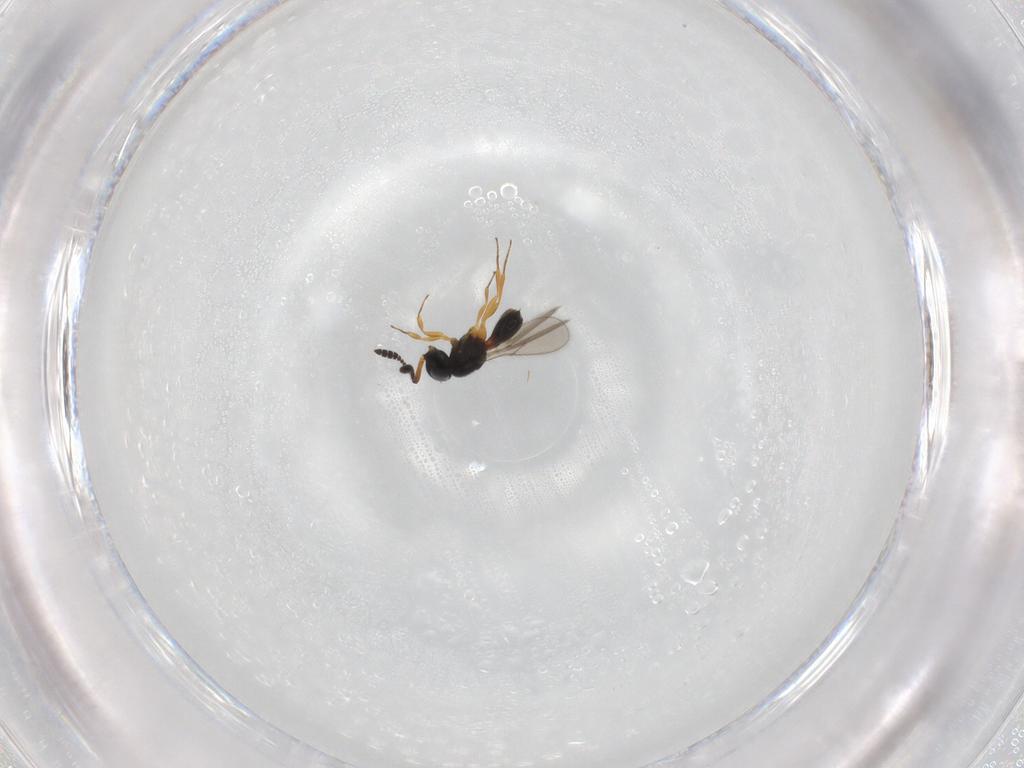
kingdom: Animalia
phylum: Arthropoda
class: Insecta
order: Hymenoptera
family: Scelionidae
